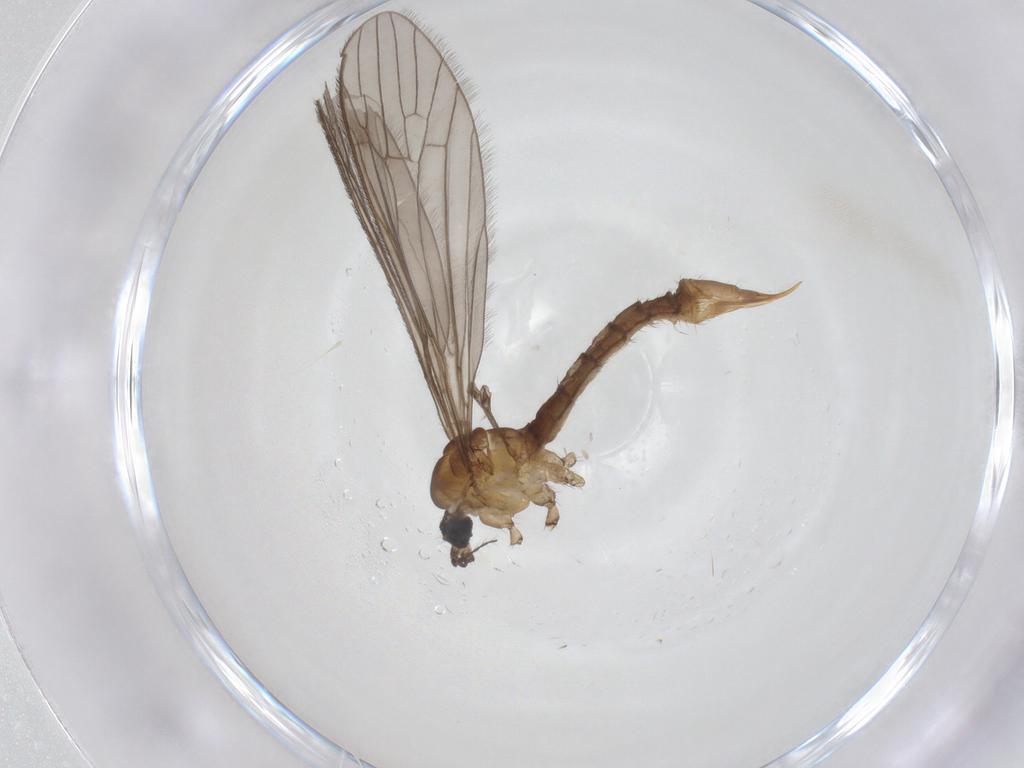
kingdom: Animalia
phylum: Arthropoda
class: Insecta
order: Diptera
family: Limoniidae
